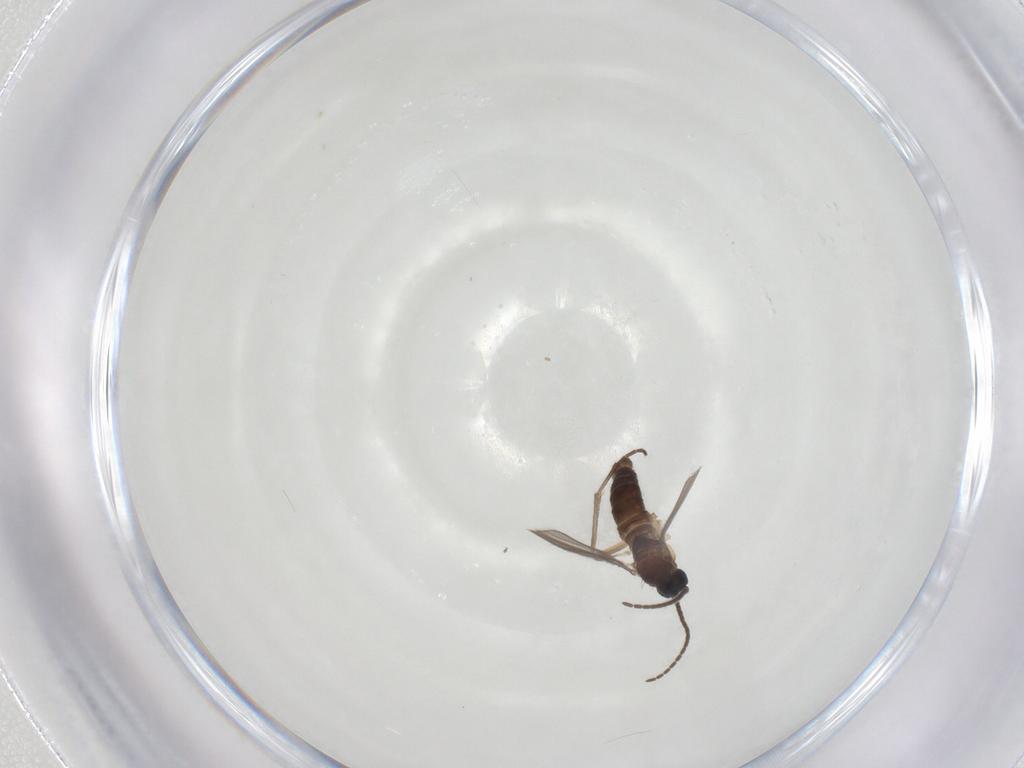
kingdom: Animalia
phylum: Arthropoda
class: Insecta
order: Diptera
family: Sciaridae
